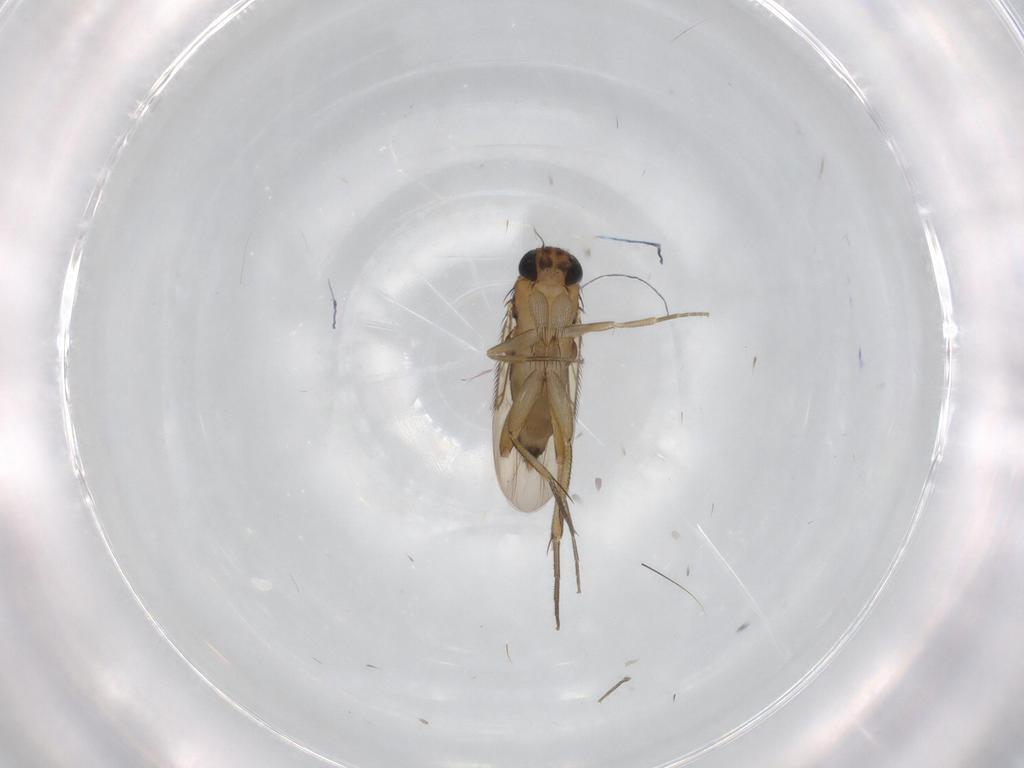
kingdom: Animalia
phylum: Arthropoda
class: Insecta
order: Diptera
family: Phoridae
